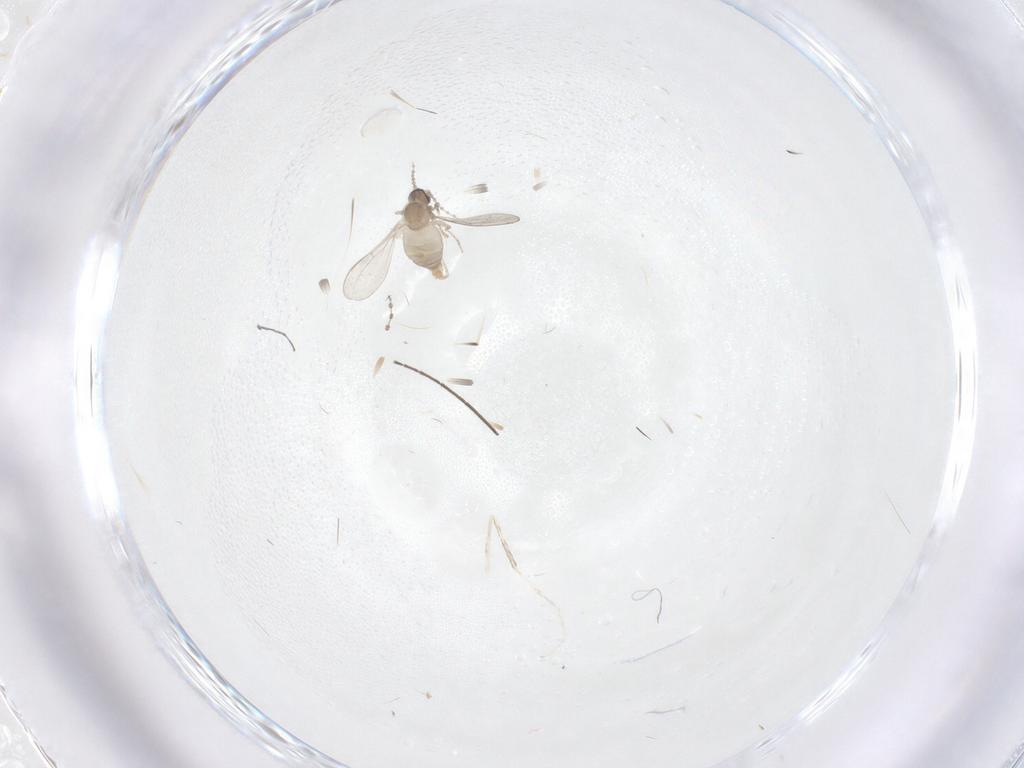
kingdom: Animalia
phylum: Arthropoda
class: Insecta
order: Diptera
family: Cecidomyiidae
